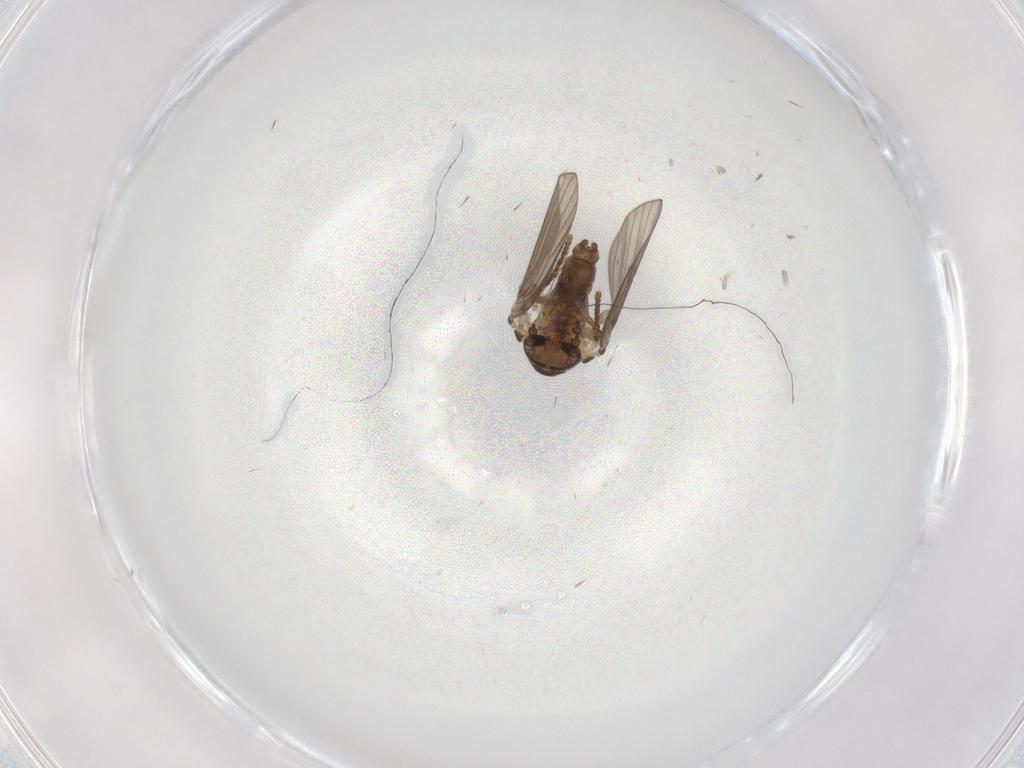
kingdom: Animalia
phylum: Arthropoda
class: Insecta
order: Diptera
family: Psychodidae
